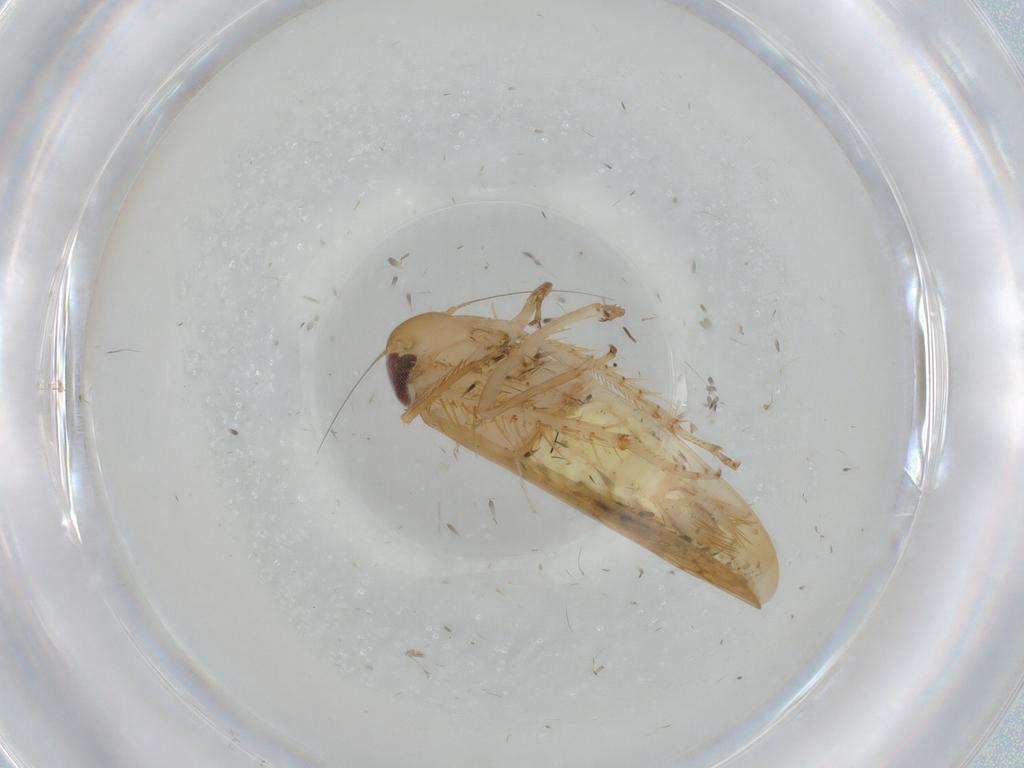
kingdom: Animalia
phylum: Arthropoda
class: Insecta
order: Hemiptera
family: Cicadellidae
